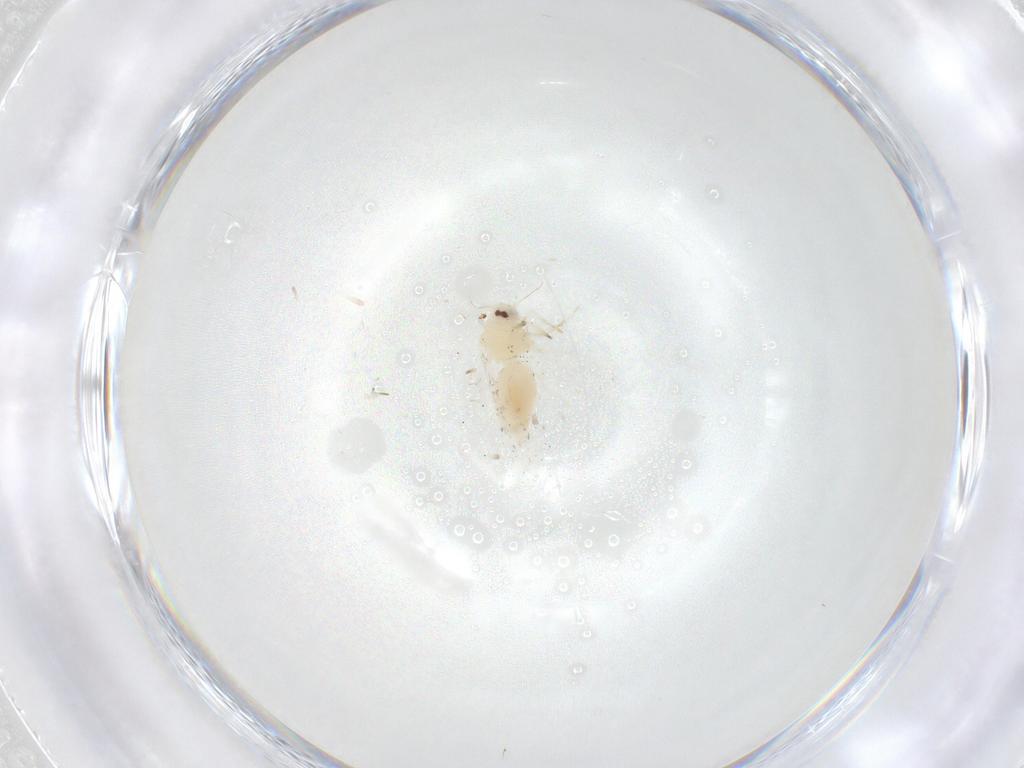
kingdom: Animalia
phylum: Arthropoda
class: Insecta
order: Hemiptera
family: Aleyrodidae
